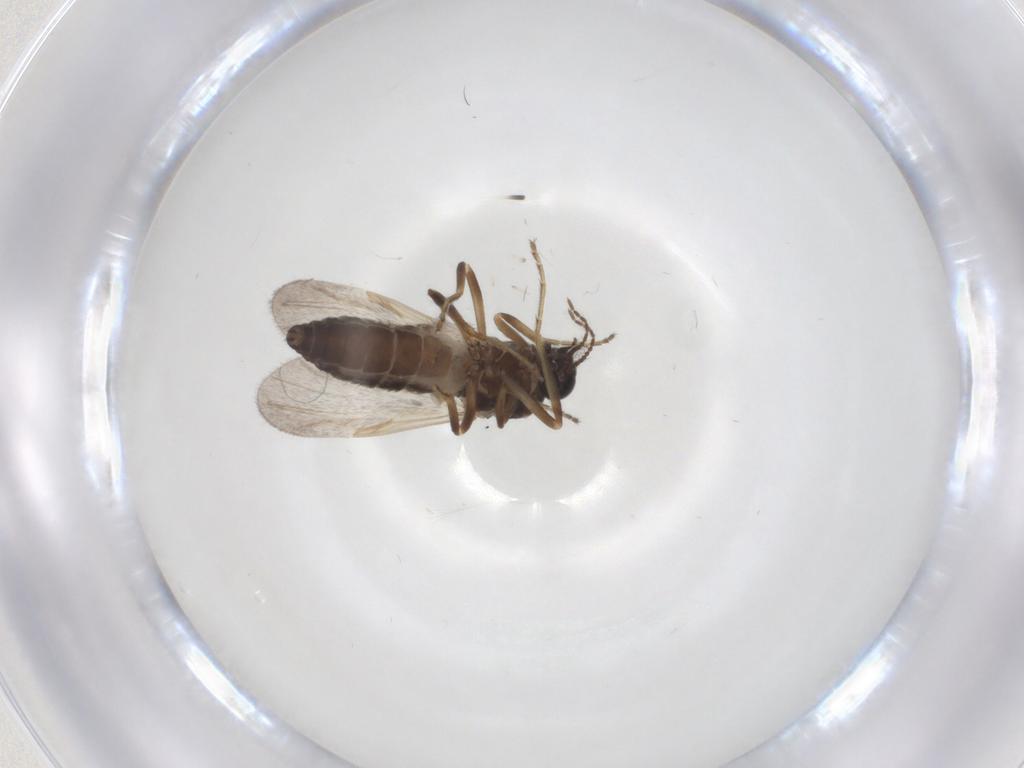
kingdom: Animalia
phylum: Arthropoda
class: Insecta
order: Diptera
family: Ceratopogonidae
